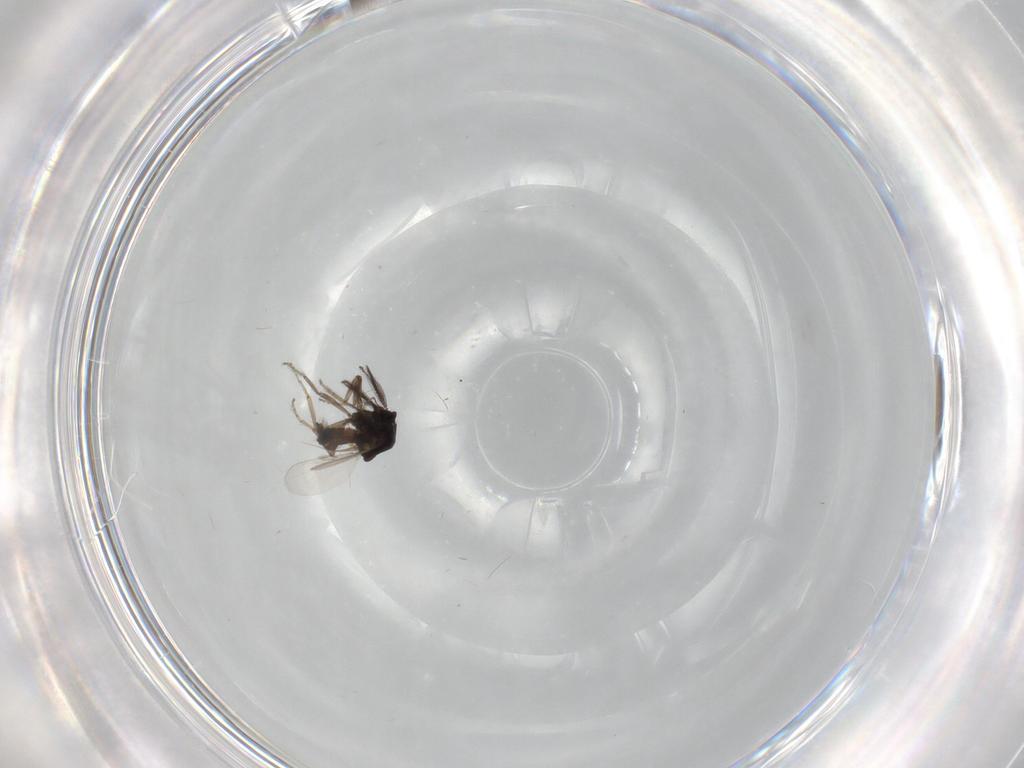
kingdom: Animalia
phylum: Arthropoda
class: Insecta
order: Diptera
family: Ceratopogonidae
